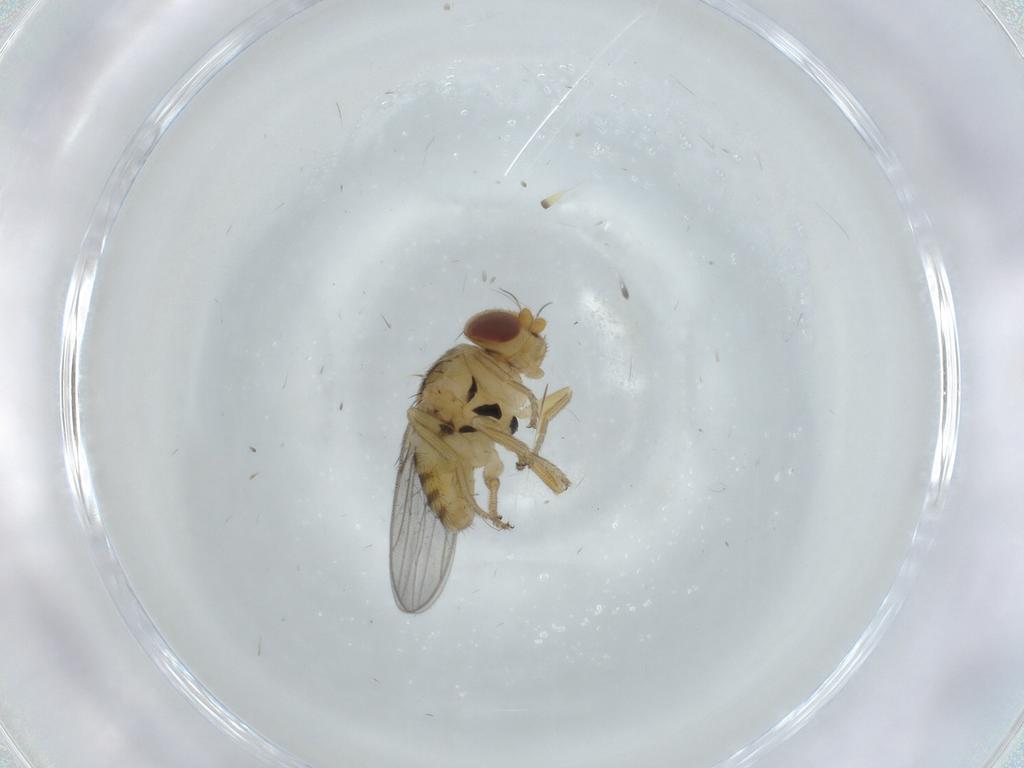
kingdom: Animalia
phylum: Arthropoda
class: Insecta
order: Diptera
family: Chloropidae
